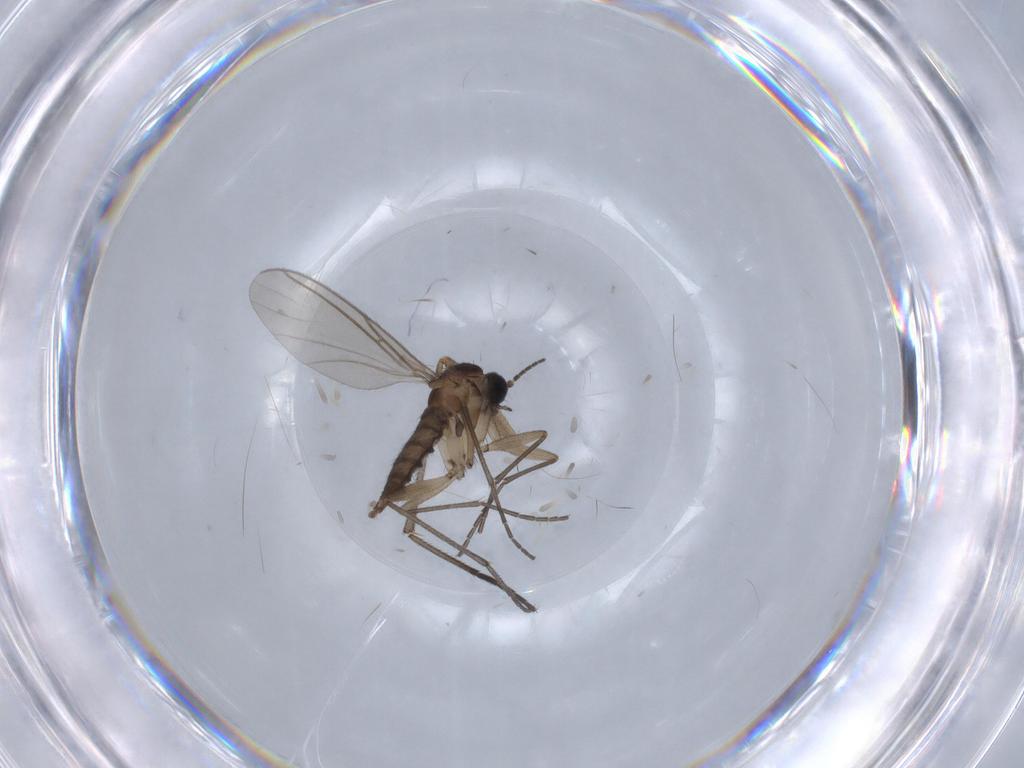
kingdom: Animalia
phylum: Arthropoda
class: Insecta
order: Diptera
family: Sciaridae
